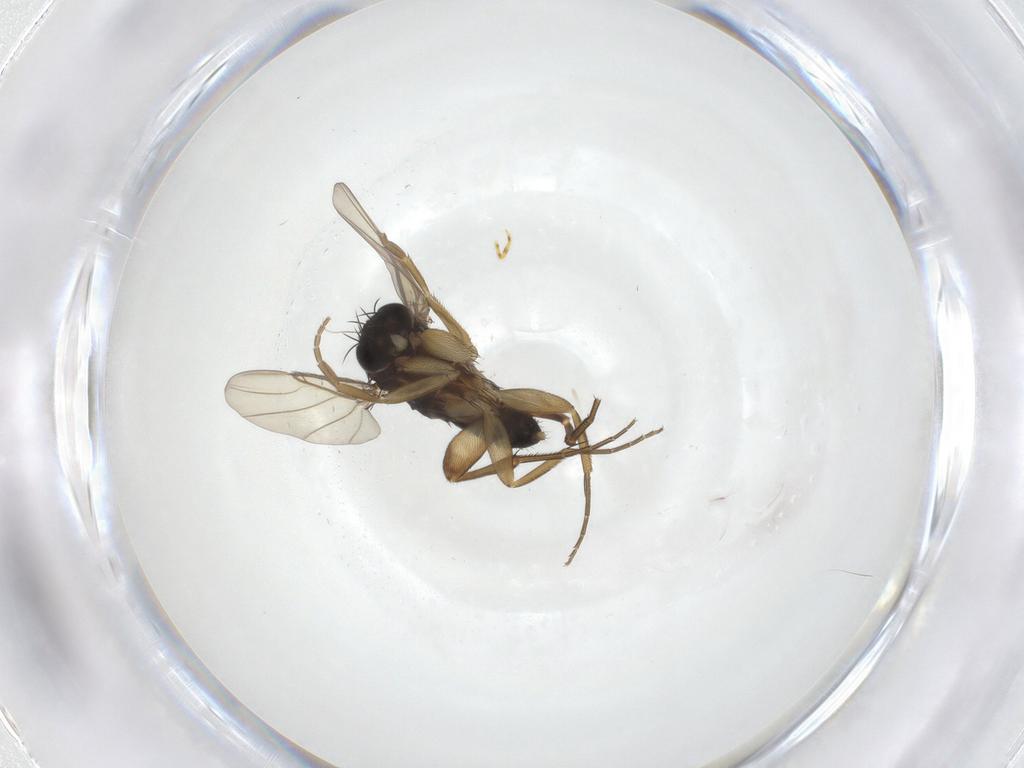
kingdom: Animalia
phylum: Arthropoda
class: Insecta
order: Diptera
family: Phoridae
